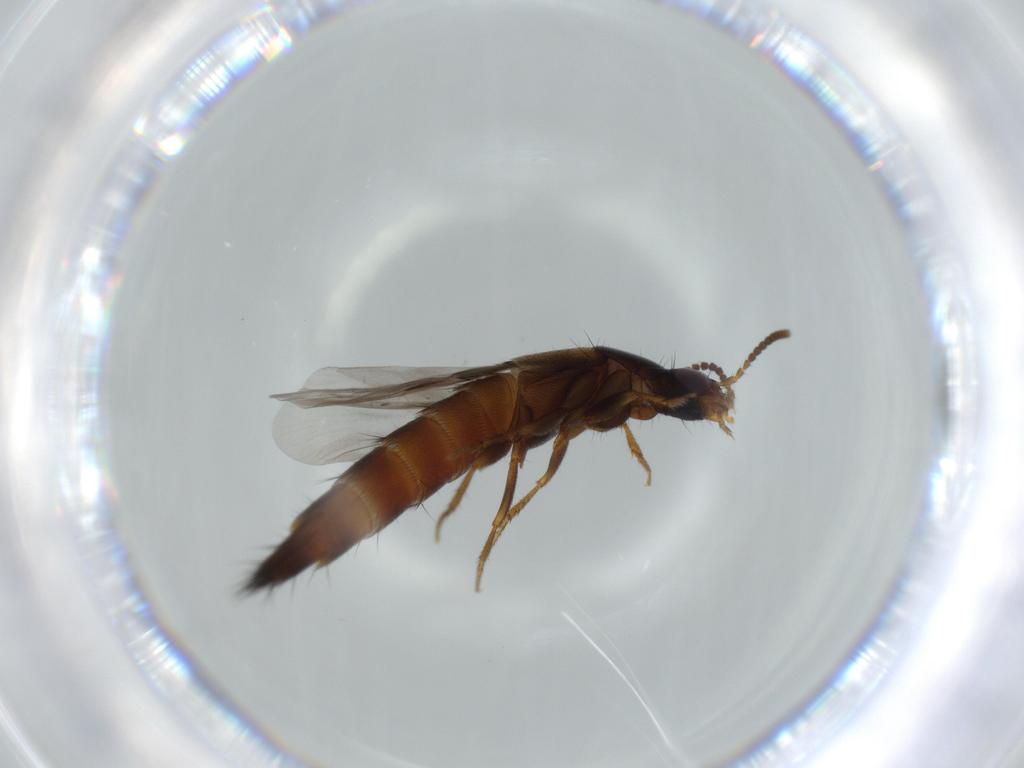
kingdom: Animalia
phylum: Arthropoda
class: Insecta
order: Coleoptera
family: Staphylinidae
